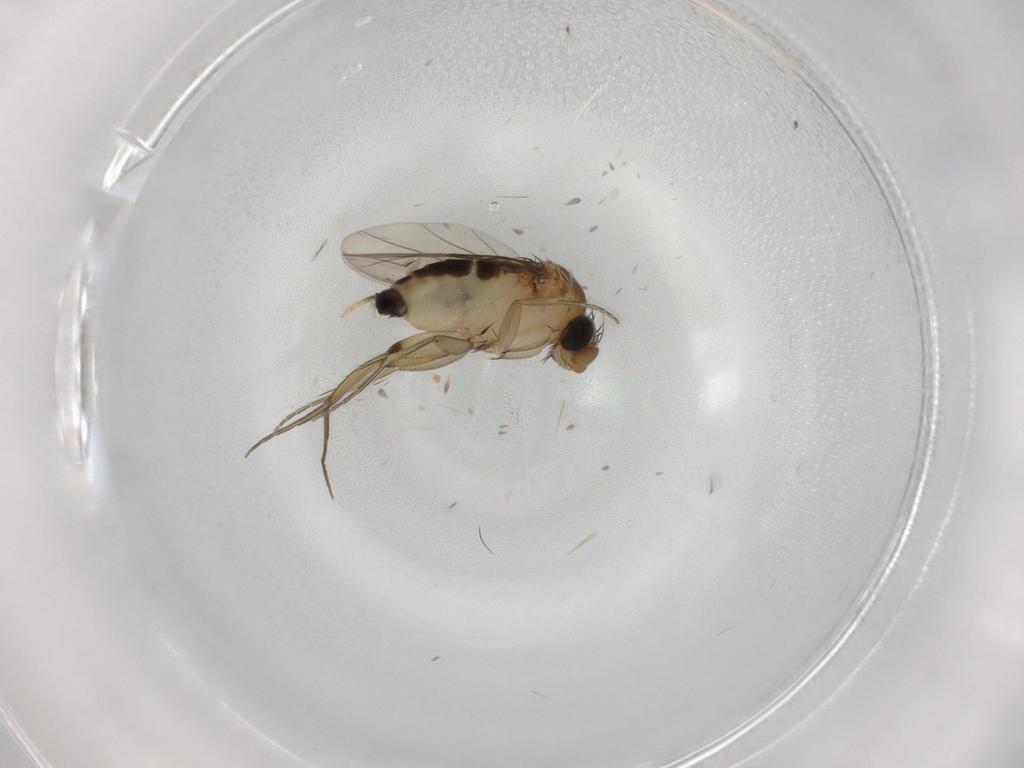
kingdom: Animalia
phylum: Arthropoda
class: Insecta
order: Diptera
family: Phoridae
